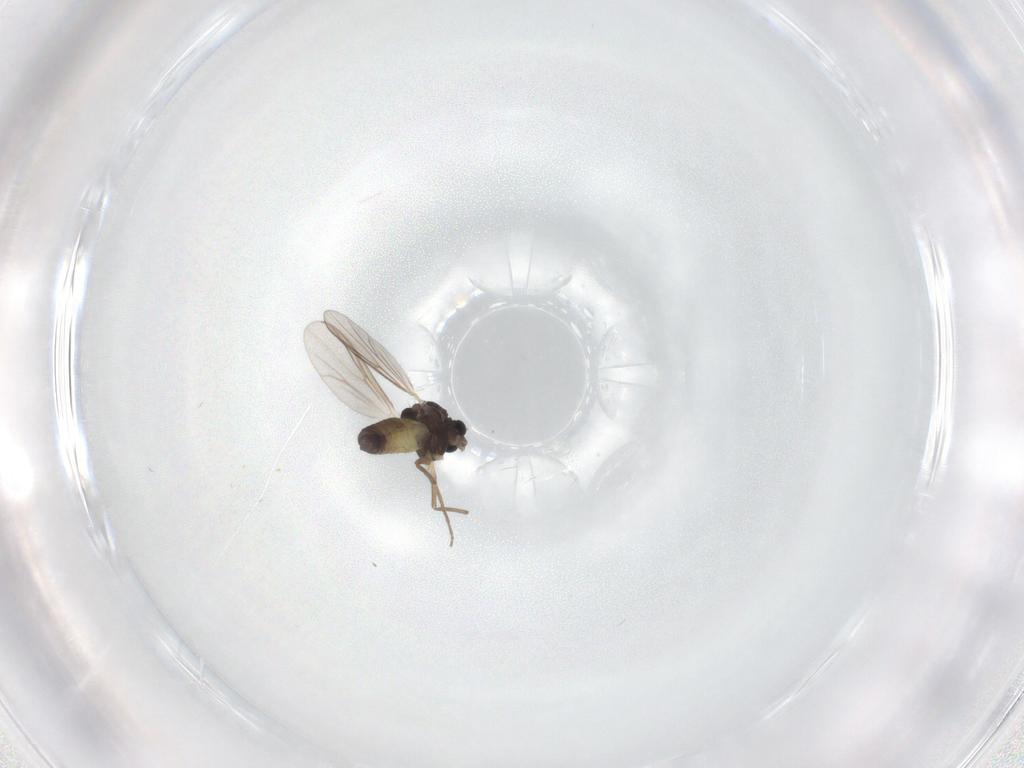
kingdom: Animalia
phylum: Arthropoda
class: Insecta
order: Diptera
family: Chironomidae
